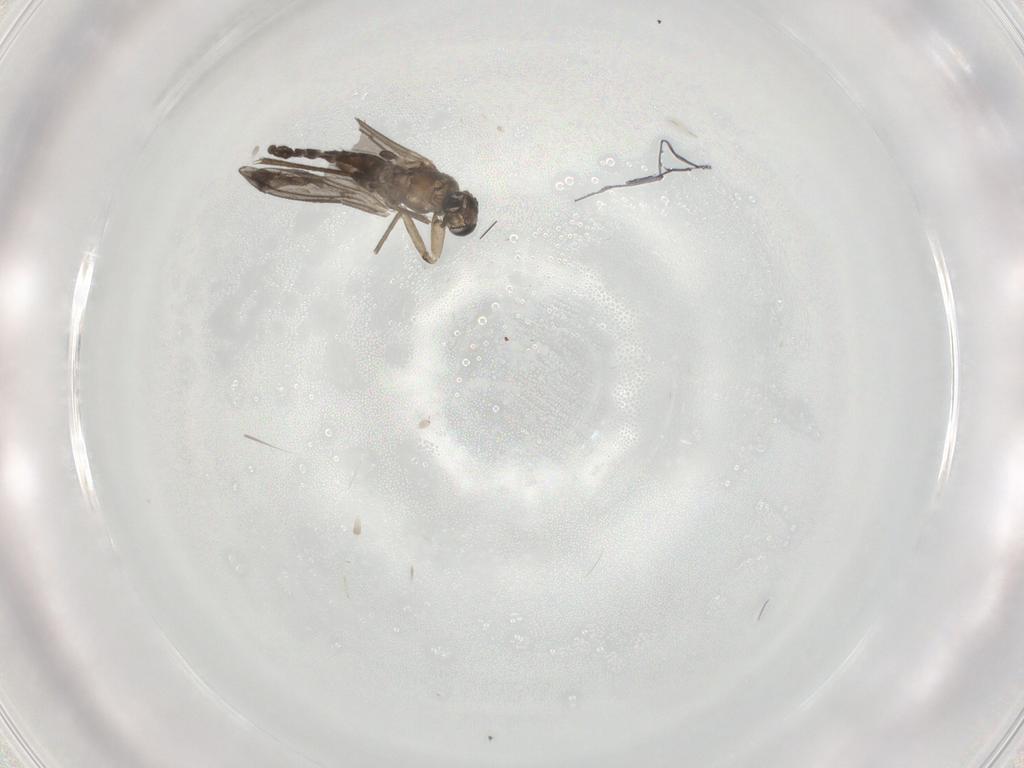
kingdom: Animalia
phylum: Arthropoda
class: Insecta
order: Diptera
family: Sciaridae
